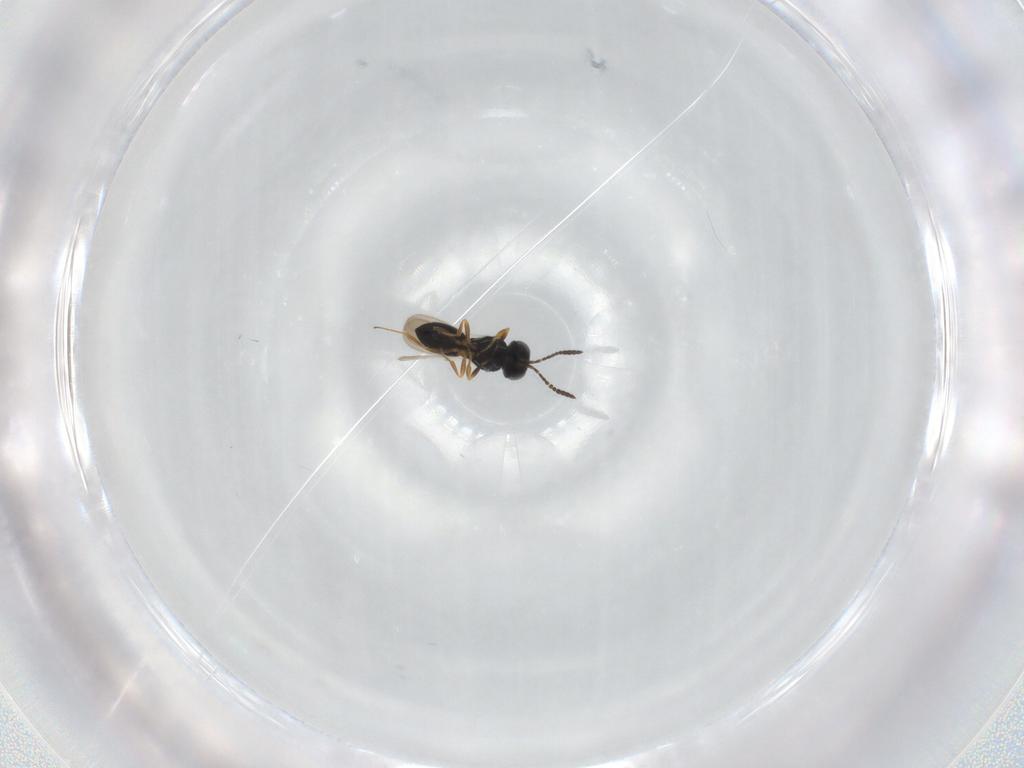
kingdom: Animalia
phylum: Arthropoda
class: Insecta
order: Hymenoptera
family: Scelionidae
